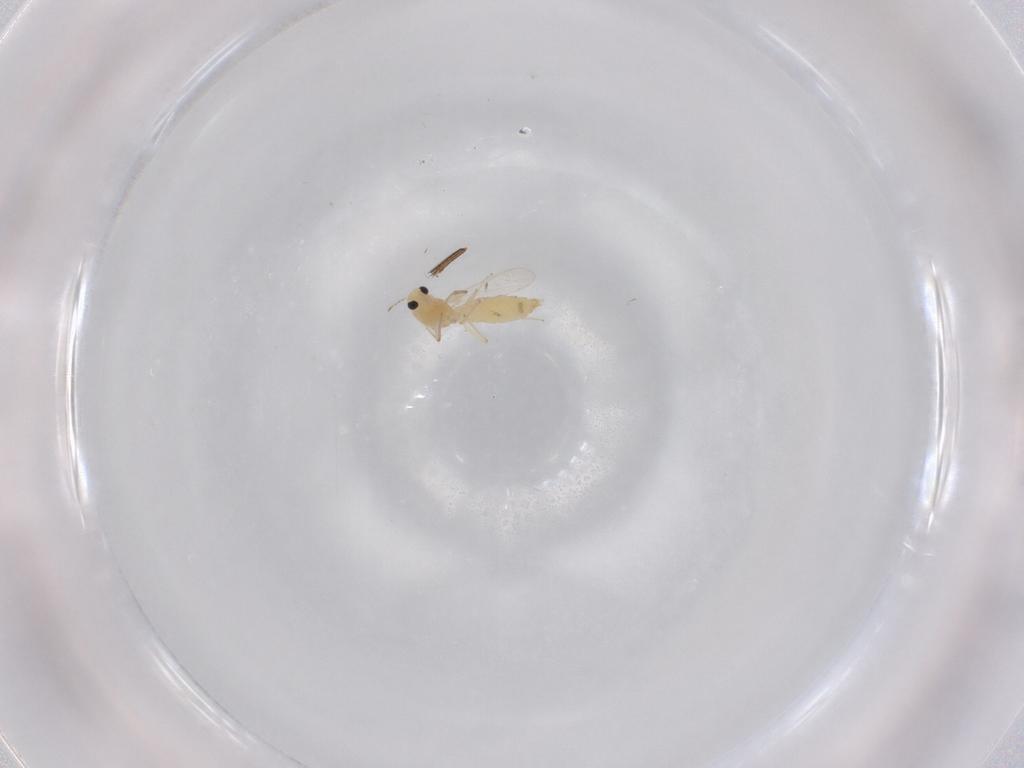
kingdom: Animalia
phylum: Arthropoda
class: Insecta
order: Diptera
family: Chironomidae
